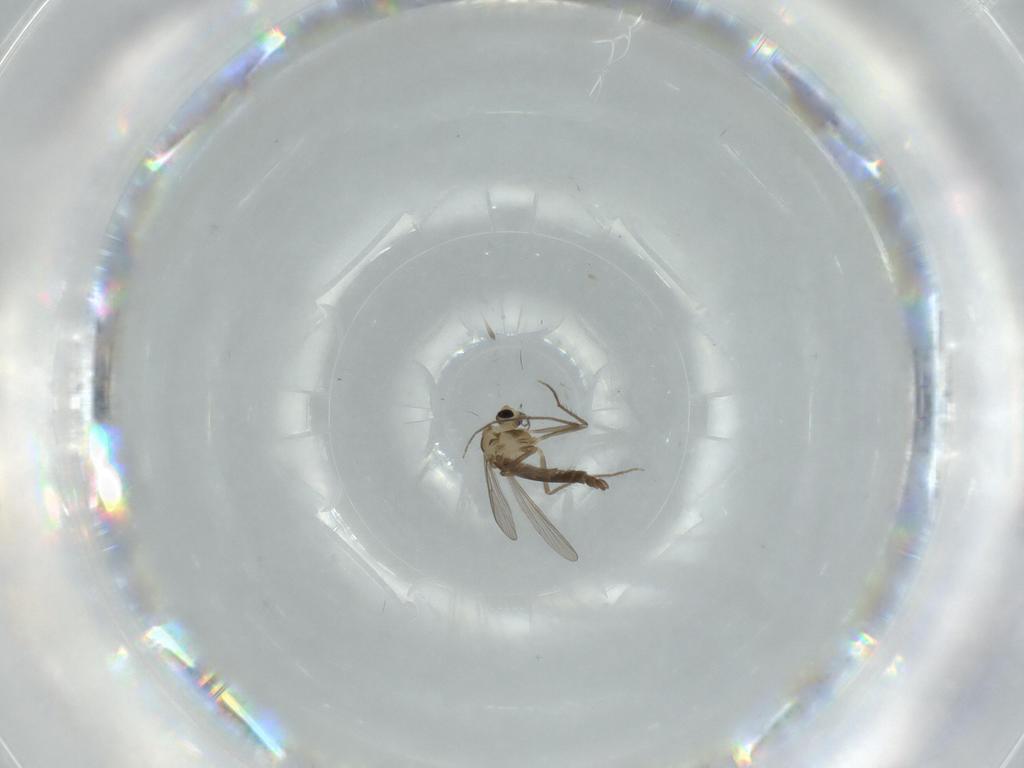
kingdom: Animalia
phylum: Arthropoda
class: Insecta
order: Diptera
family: Chironomidae
